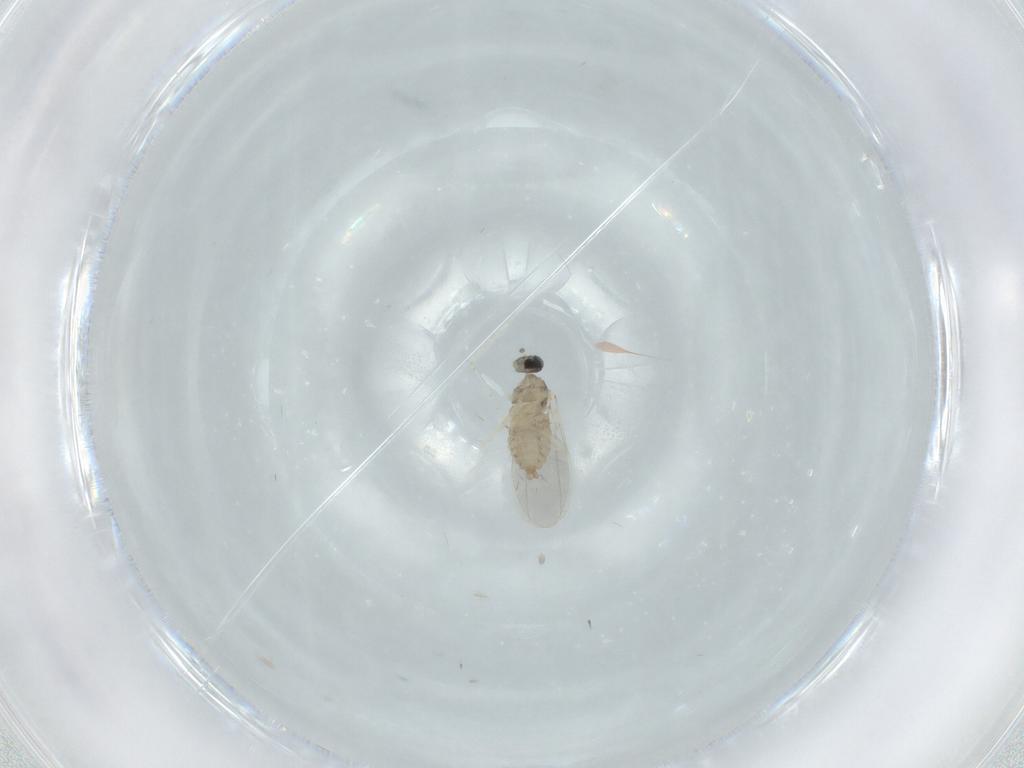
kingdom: Animalia
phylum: Arthropoda
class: Insecta
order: Diptera
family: Cecidomyiidae
